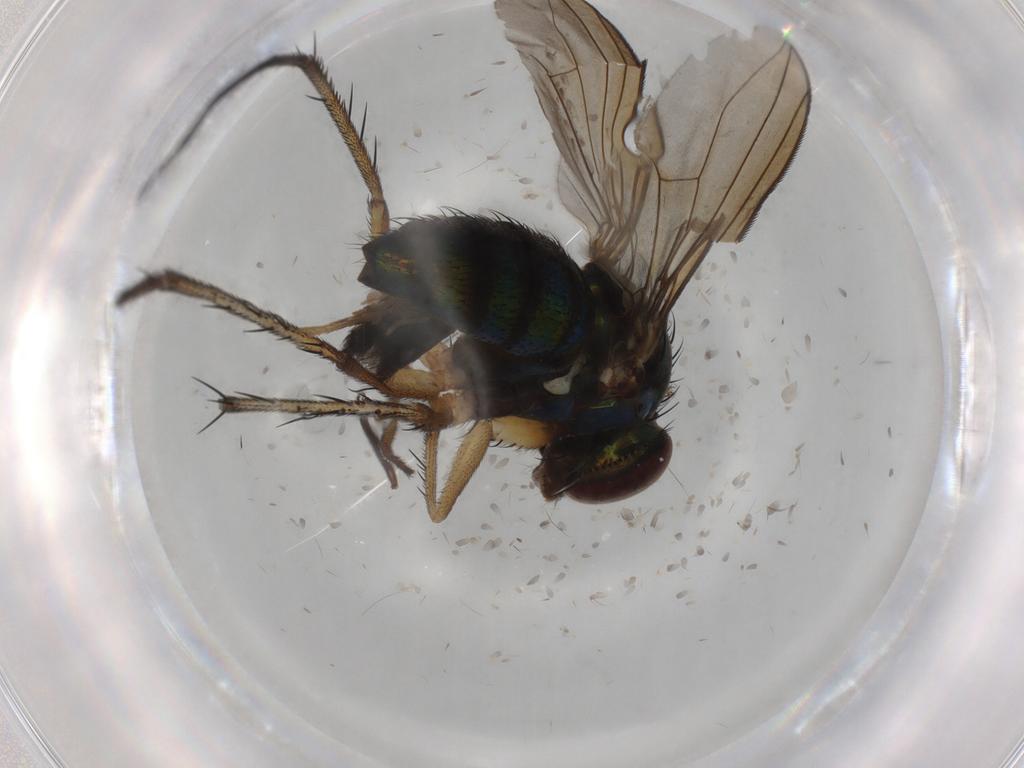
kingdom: Animalia
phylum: Arthropoda
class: Insecta
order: Diptera
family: Dolichopodidae
